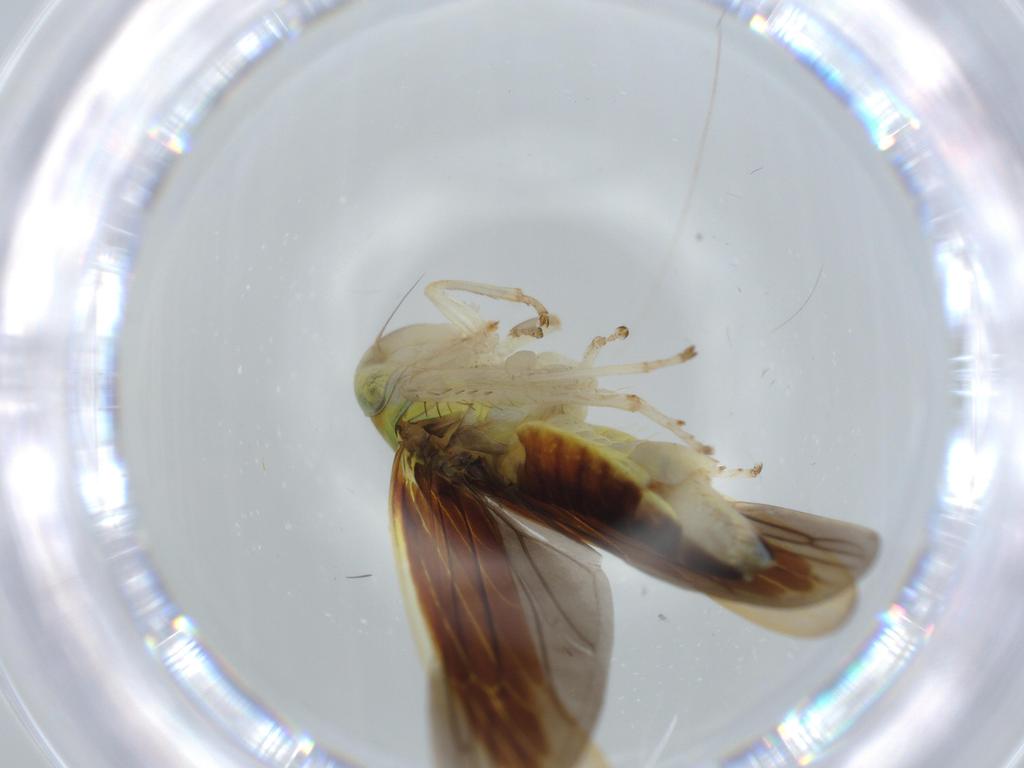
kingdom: Animalia
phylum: Arthropoda
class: Insecta
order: Hemiptera
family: Cicadellidae
